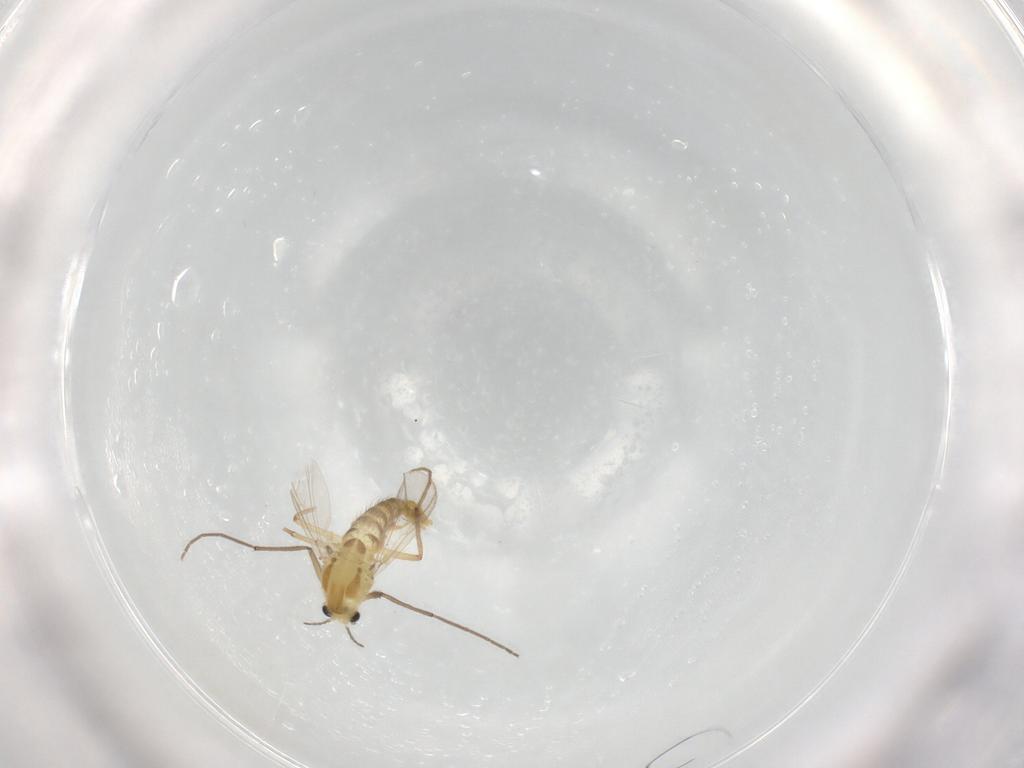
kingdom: Animalia
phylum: Arthropoda
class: Insecta
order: Diptera
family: Chironomidae
